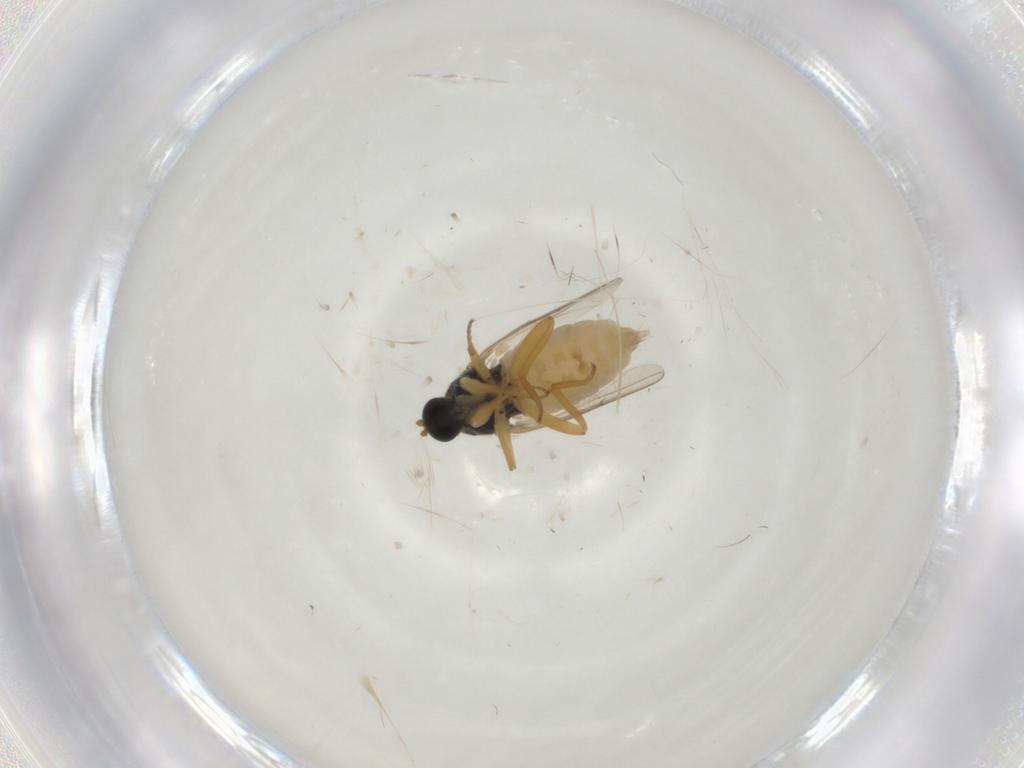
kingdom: Animalia
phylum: Arthropoda
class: Insecta
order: Diptera
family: Hybotidae
